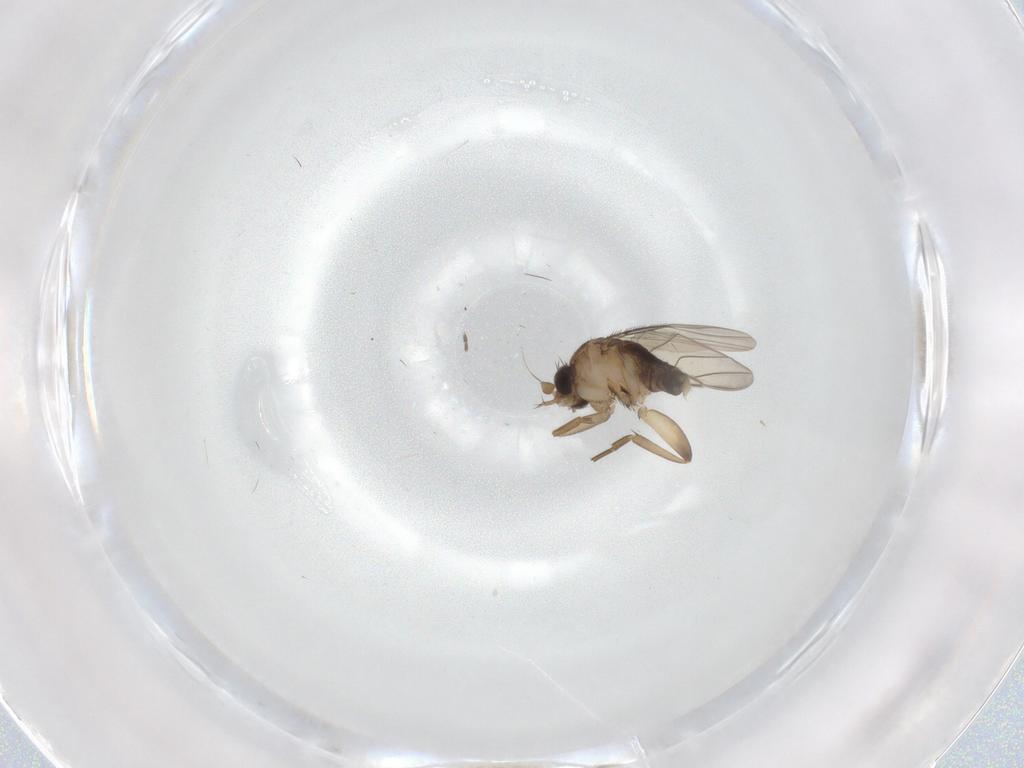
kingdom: Animalia
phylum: Arthropoda
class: Insecta
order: Diptera
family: Phoridae
